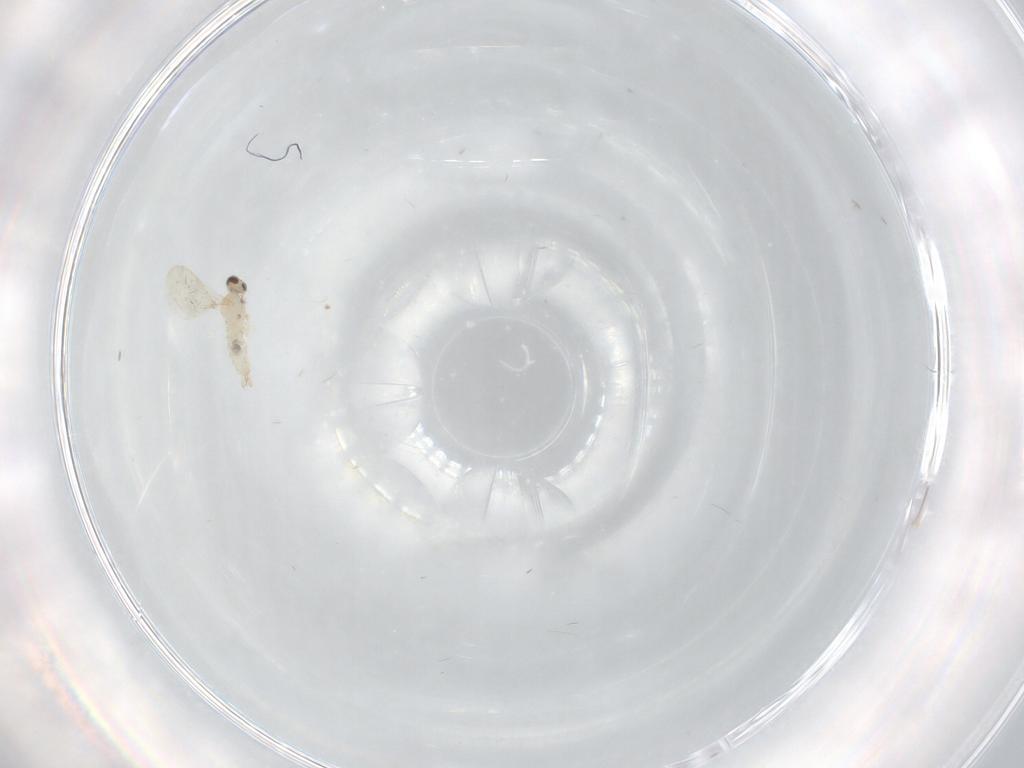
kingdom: Animalia
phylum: Arthropoda
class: Insecta
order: Diptera
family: Cecidomyiidae
